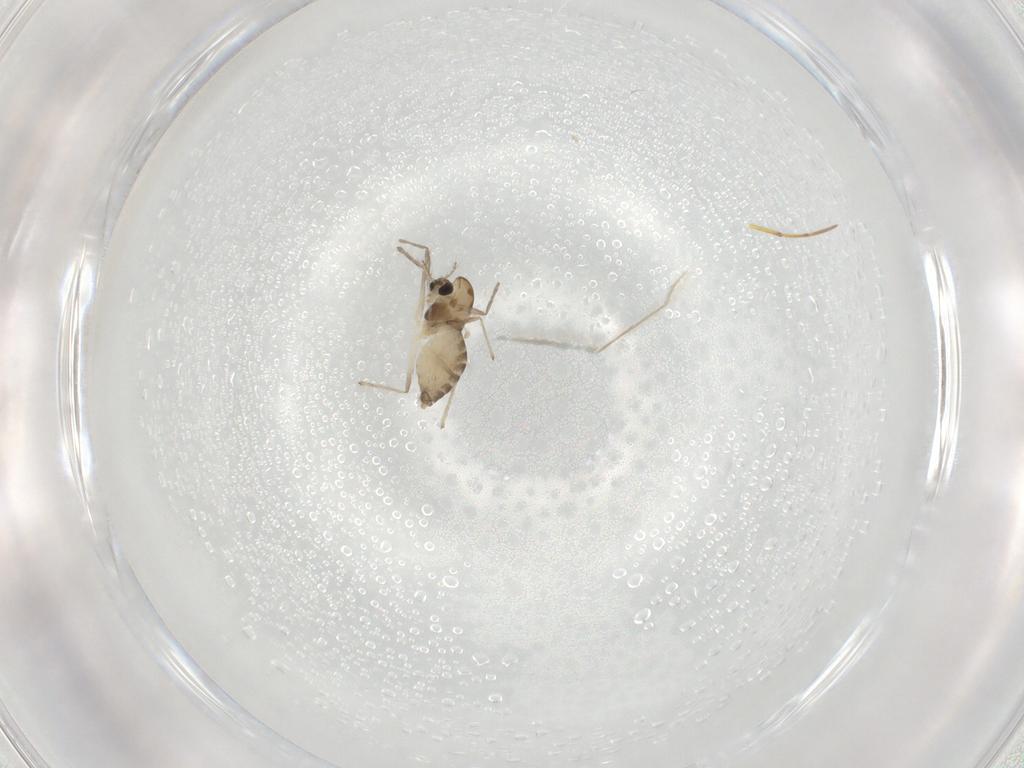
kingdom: Animalia
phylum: Arthropoda
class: Insecta
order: Diptera
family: Chironomidae
